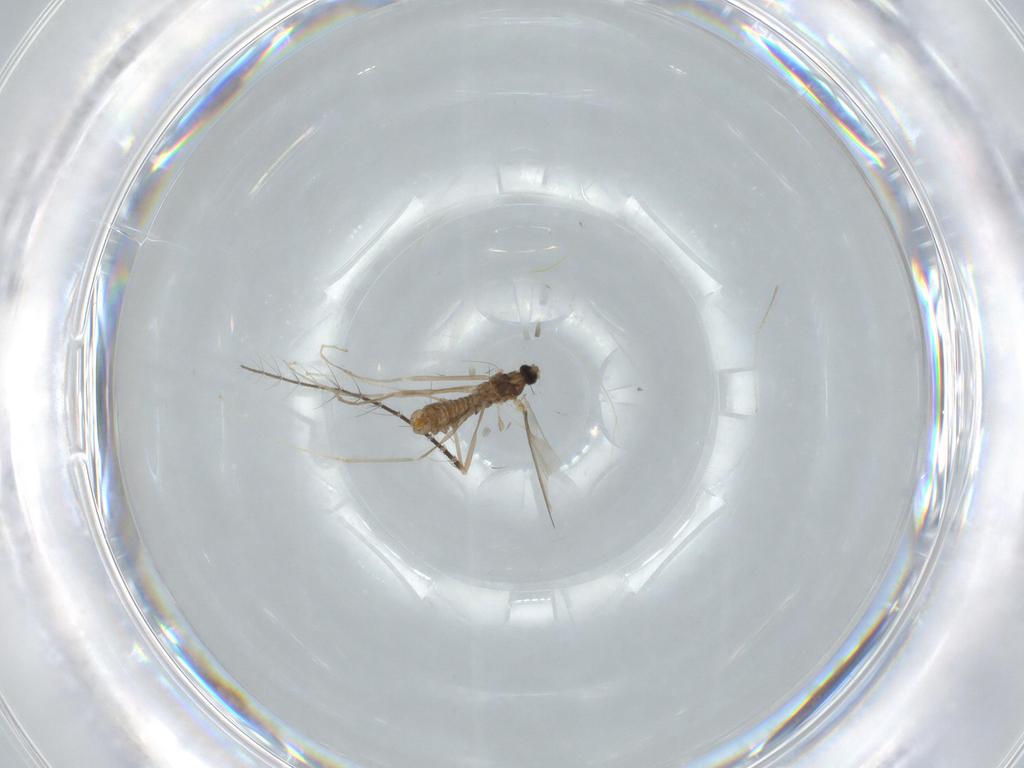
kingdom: Animalia
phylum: Arthropoda
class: Insecta
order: Diptera
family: Cecidomyiidae
